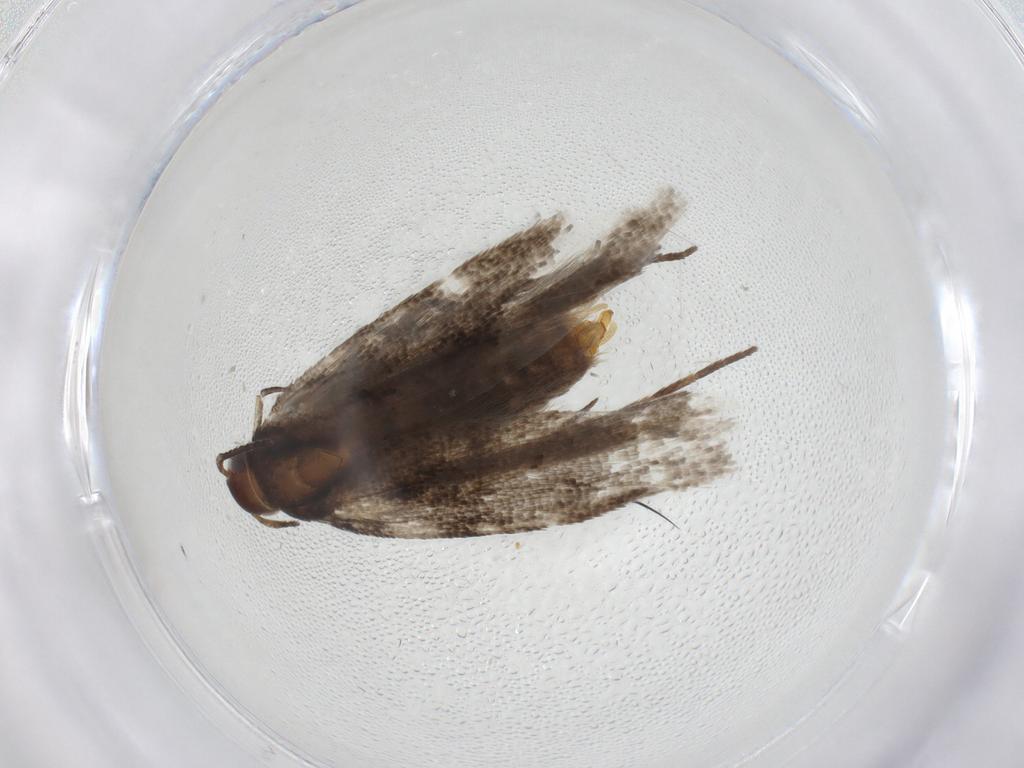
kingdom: Animalia
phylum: Arthropoda
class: Insecta
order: Lepidoptera
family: Gelechiidae
